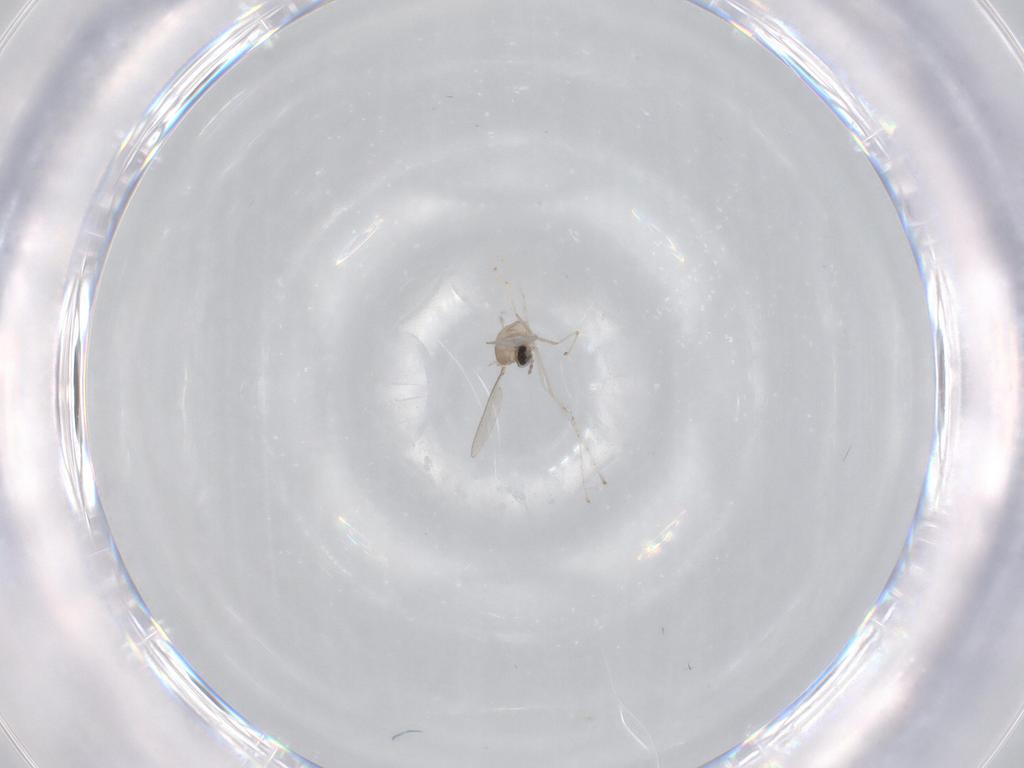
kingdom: Animalia
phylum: Arthropoda
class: Insecta
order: Diptera
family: Cecidomyiidae
